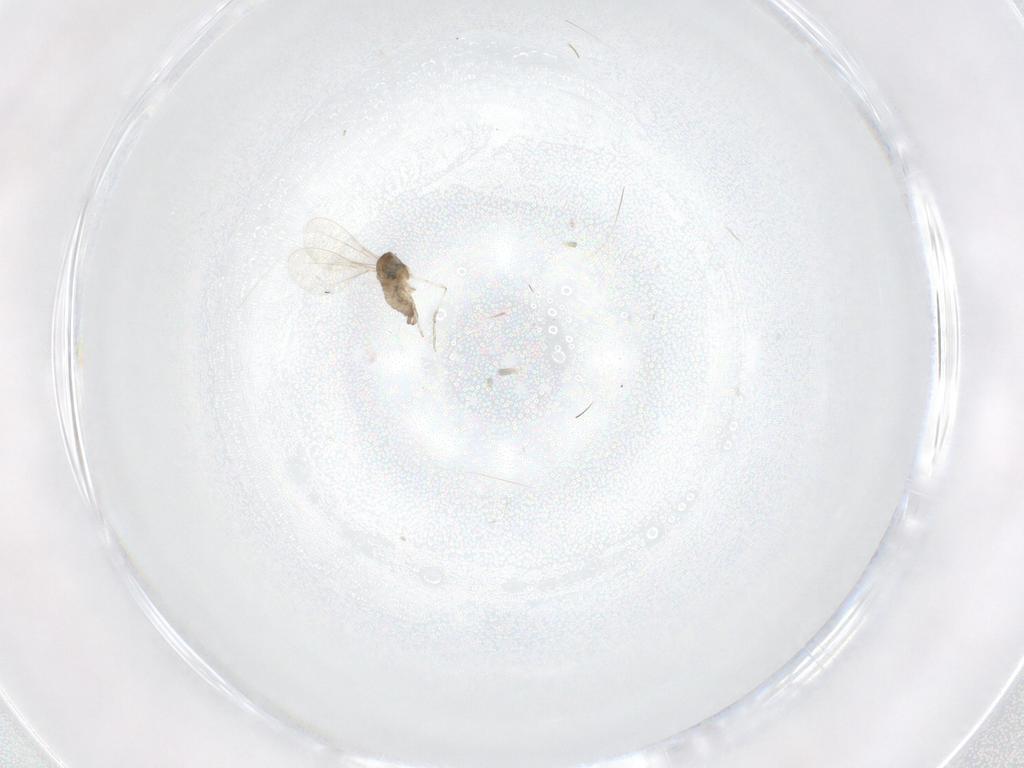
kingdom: Animalia
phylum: Arthropoda
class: Insecta
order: Diptera
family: Cecidomyiidae
